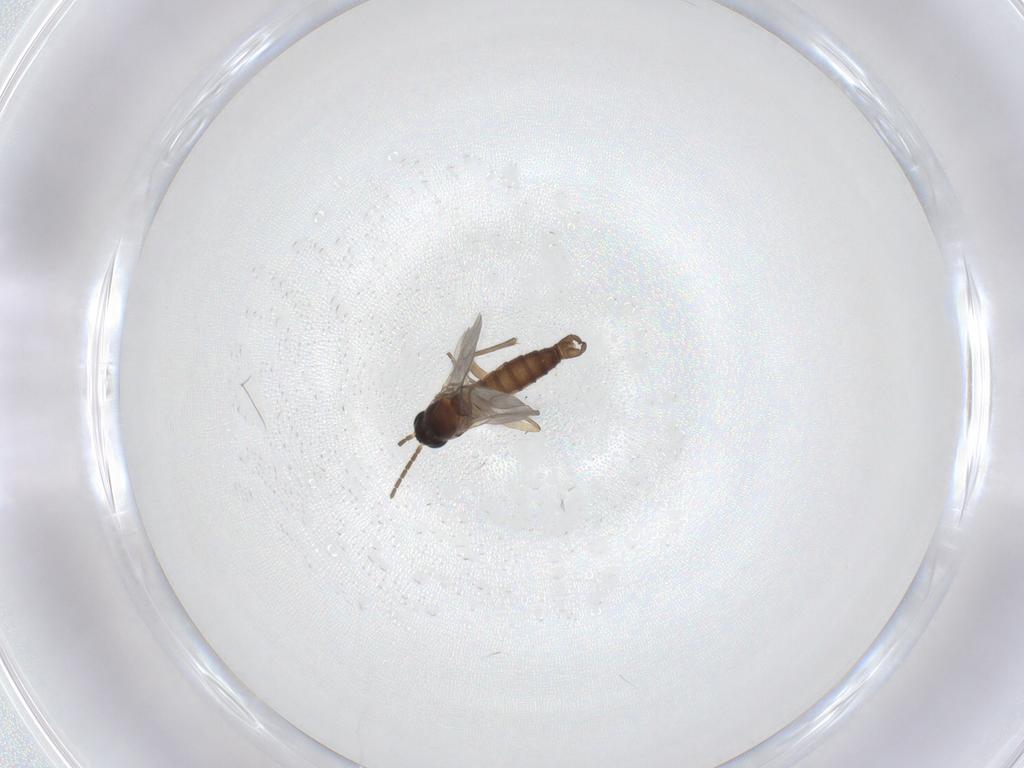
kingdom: Animalia
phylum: Arthropoda
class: Insecta
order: Diptera
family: Sciaridae
